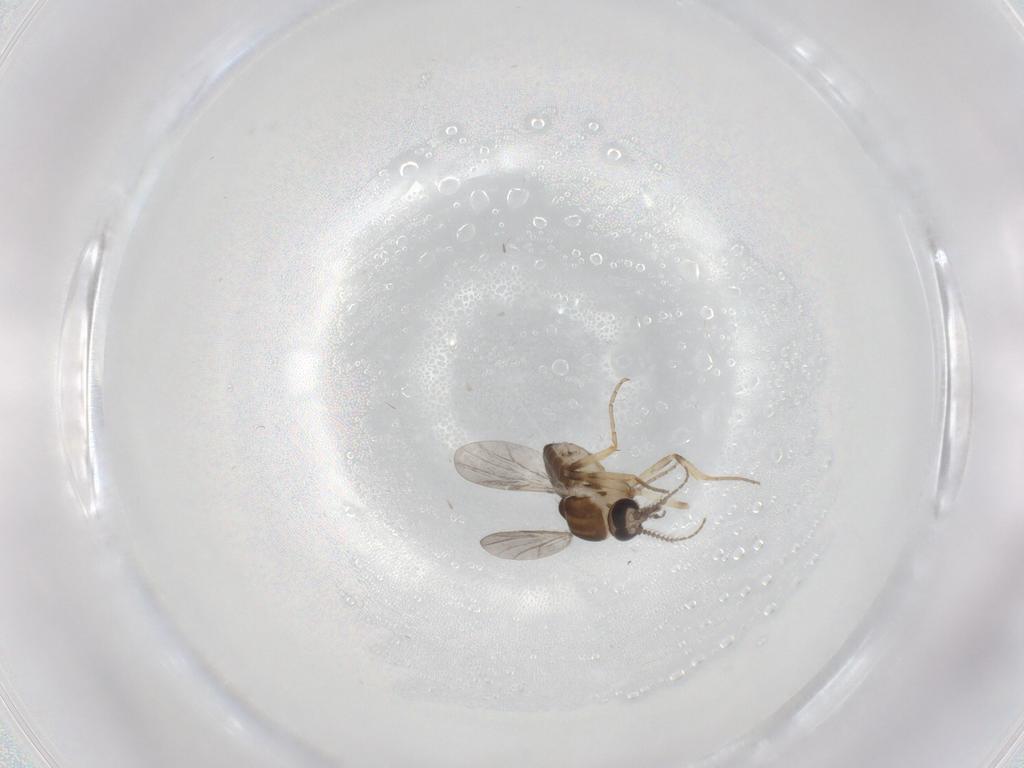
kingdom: Animalia
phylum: Arthropoda
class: Insecta
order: Diptera
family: Ceratopogonidae
